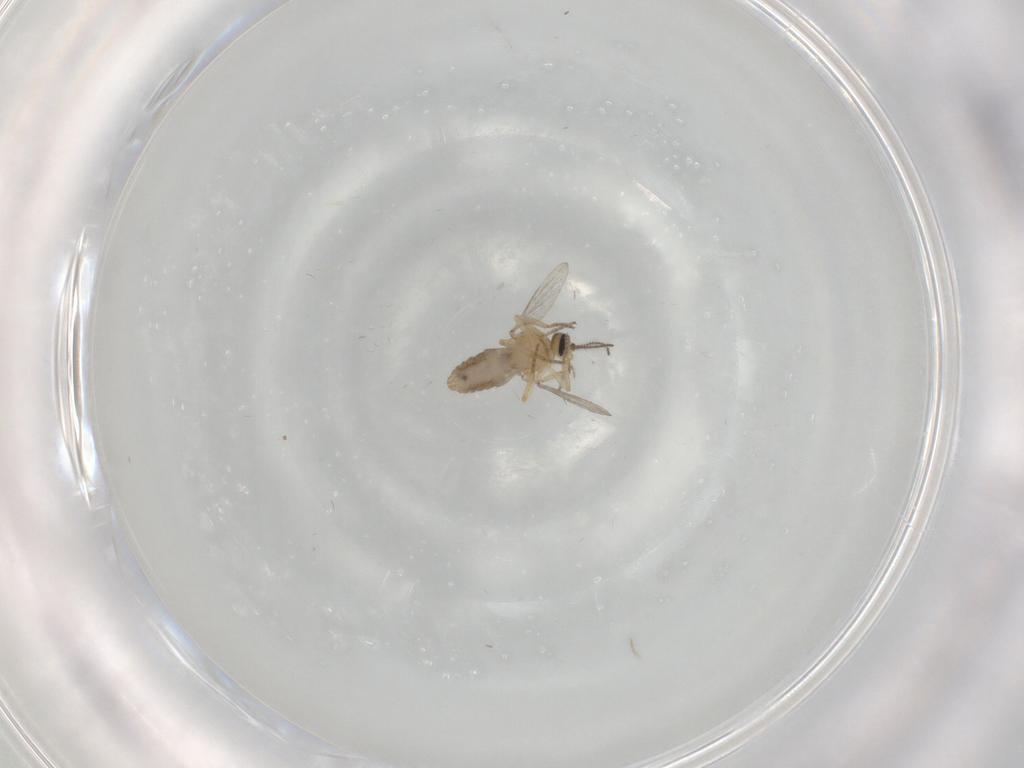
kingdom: Animalia
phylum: Arthropoda
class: Insecta
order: Diptera
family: Ceratopogonidae
